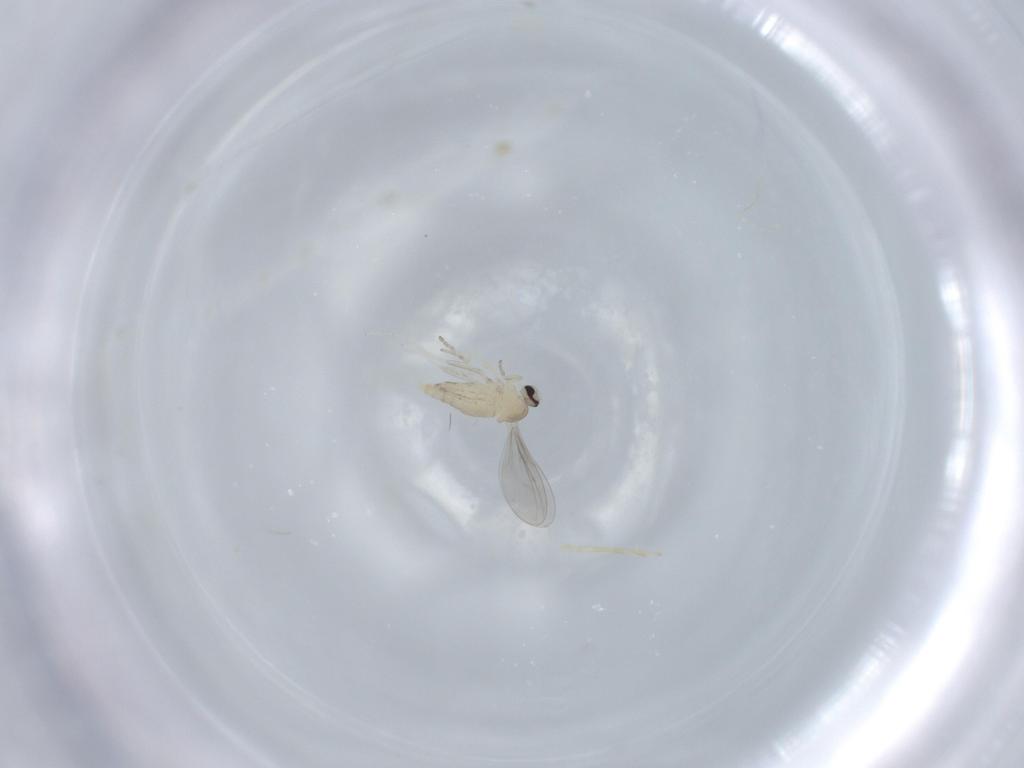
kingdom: Animalia
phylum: Arthropoda
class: Insecta
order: Diptera
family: Cecidomyiidae
